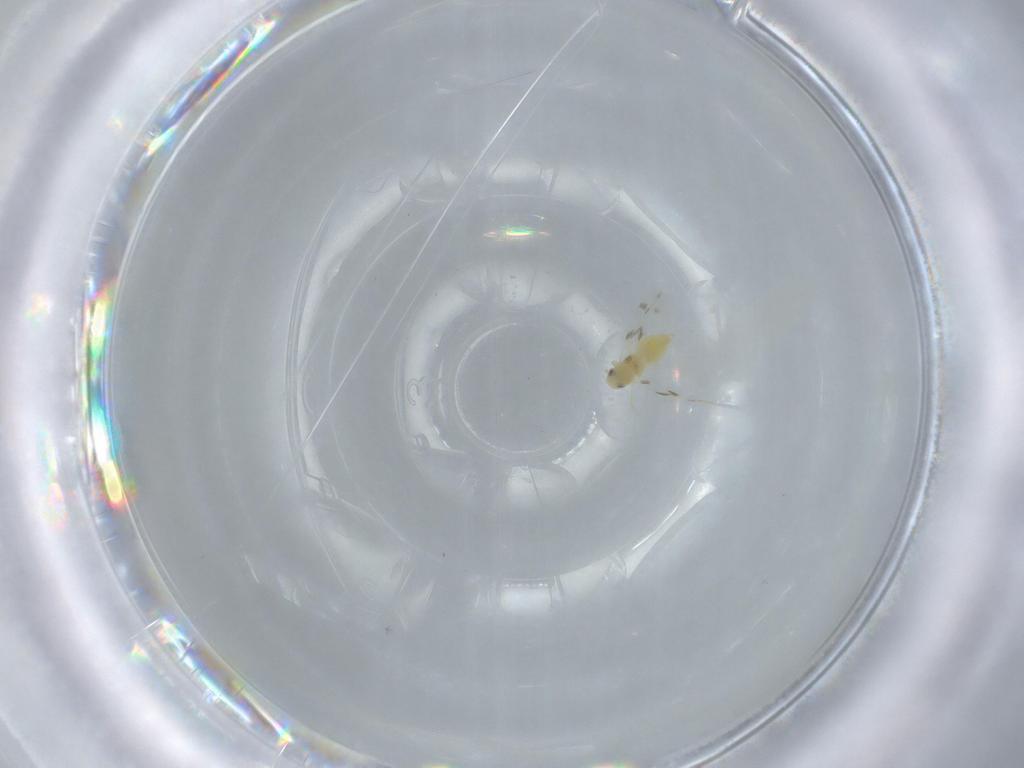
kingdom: Animalia
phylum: Arthropoda
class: Insecta
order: Hemiptera
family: Aleyrodidae
